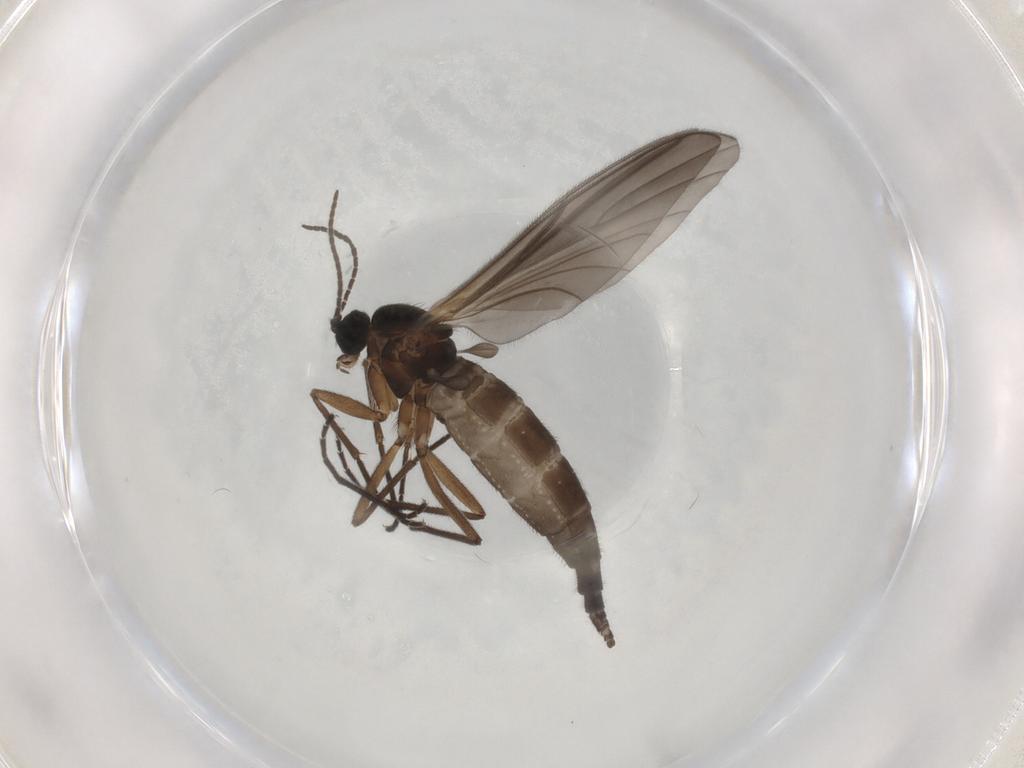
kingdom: Animalia
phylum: Arthropoda
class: Insecta
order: Diptera
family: Sciaridae
